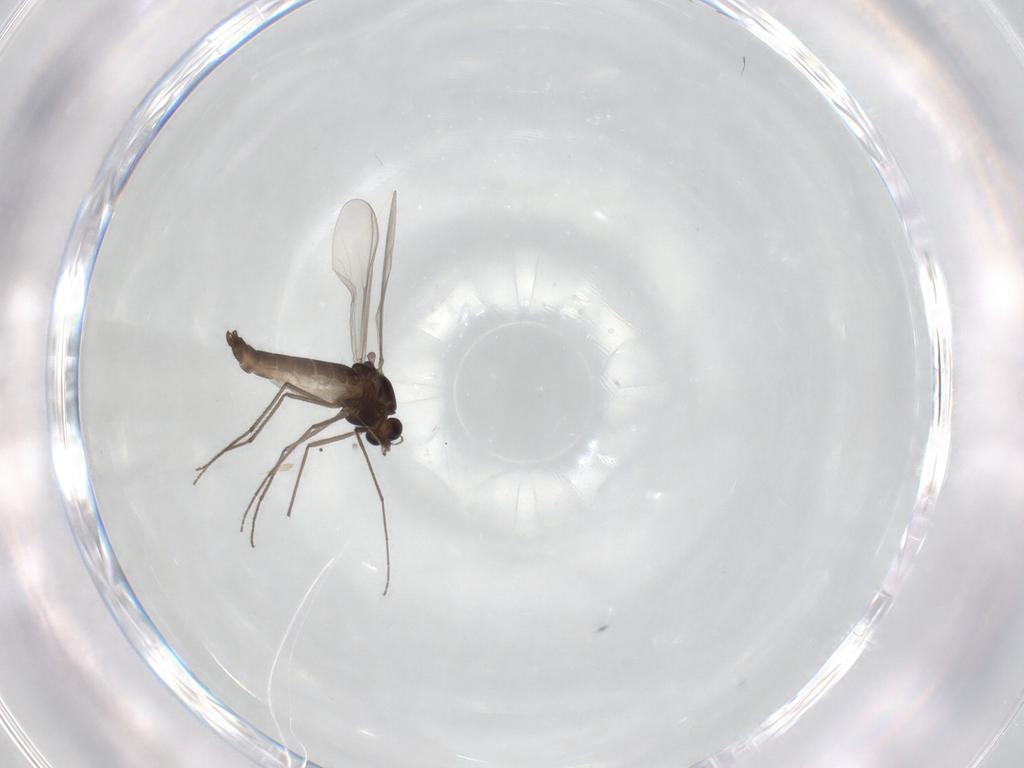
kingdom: Animalia
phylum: Arthropoda
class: Insecta
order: Diptera
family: Chironomidae
